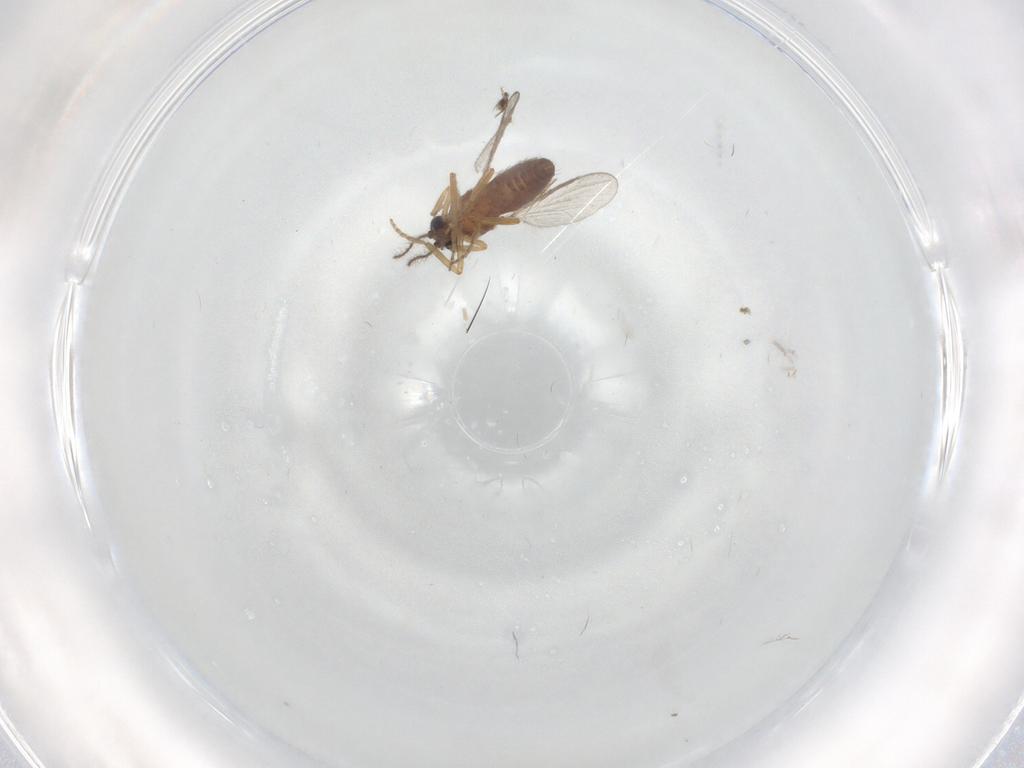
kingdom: Animalia
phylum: Arthropoda
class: Insecta
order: Diptera
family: Ceratopogonidae
